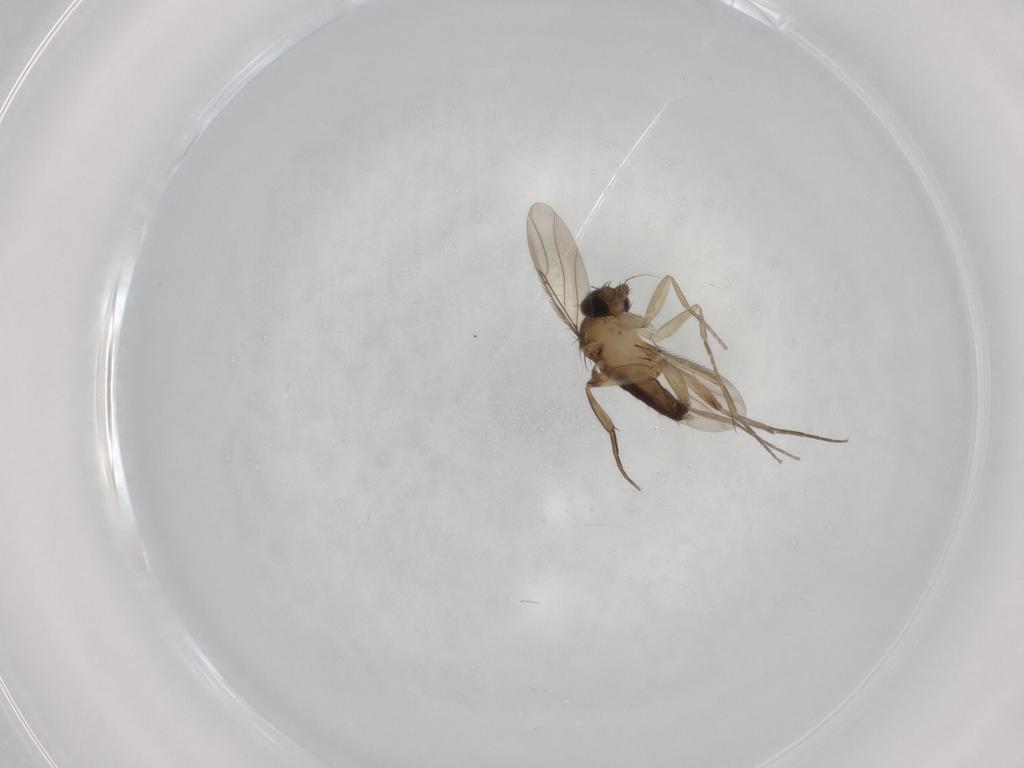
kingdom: Animalia
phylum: Arthropoda
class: Insecta
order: Diptera
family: Phoridae
